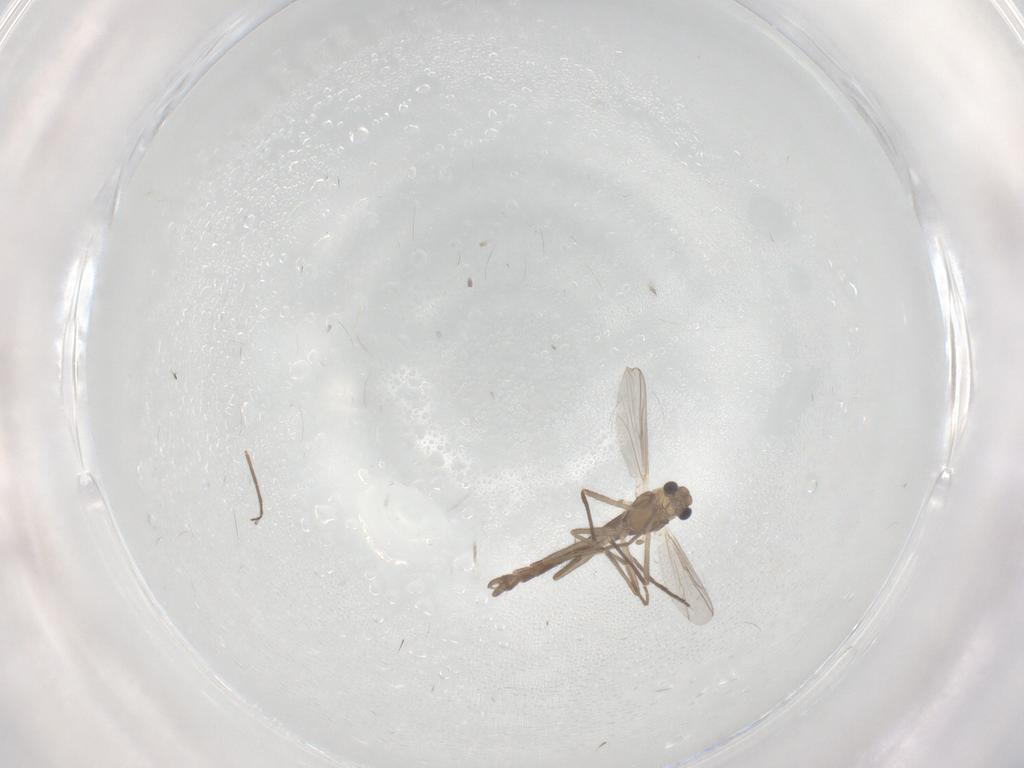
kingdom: Animalia
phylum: Arthropoda
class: Insecta
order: Diptera
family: Chironomidae
